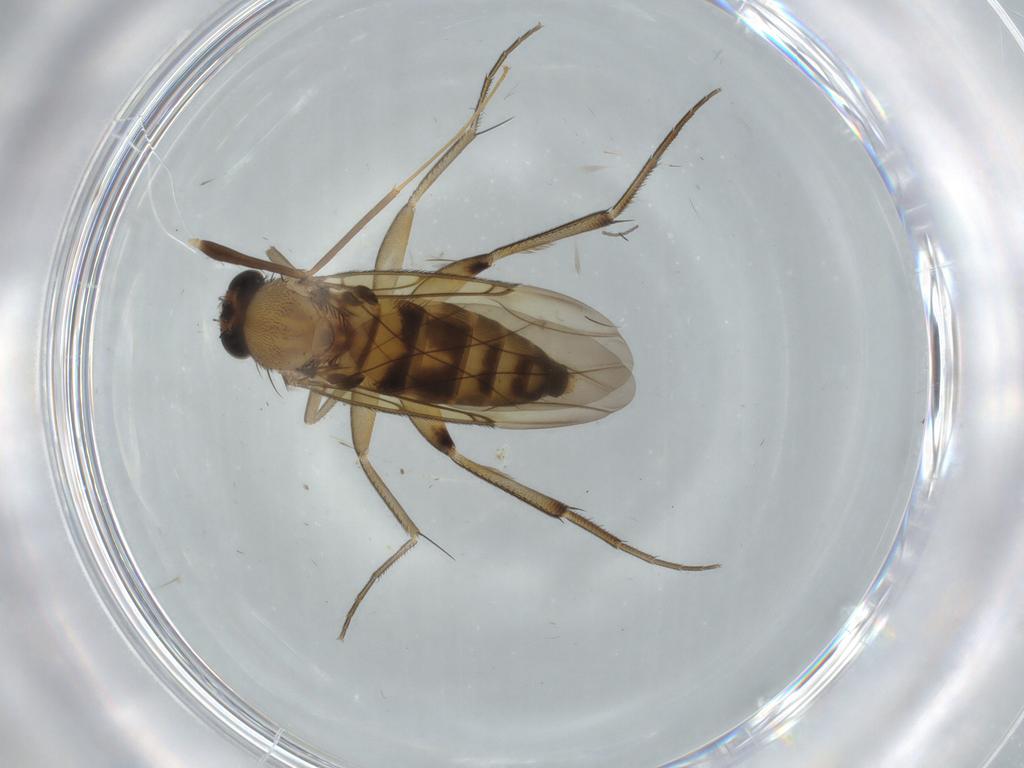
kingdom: Animalia
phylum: Arthropoda
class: Insecta
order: Diptera
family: Phoridae
